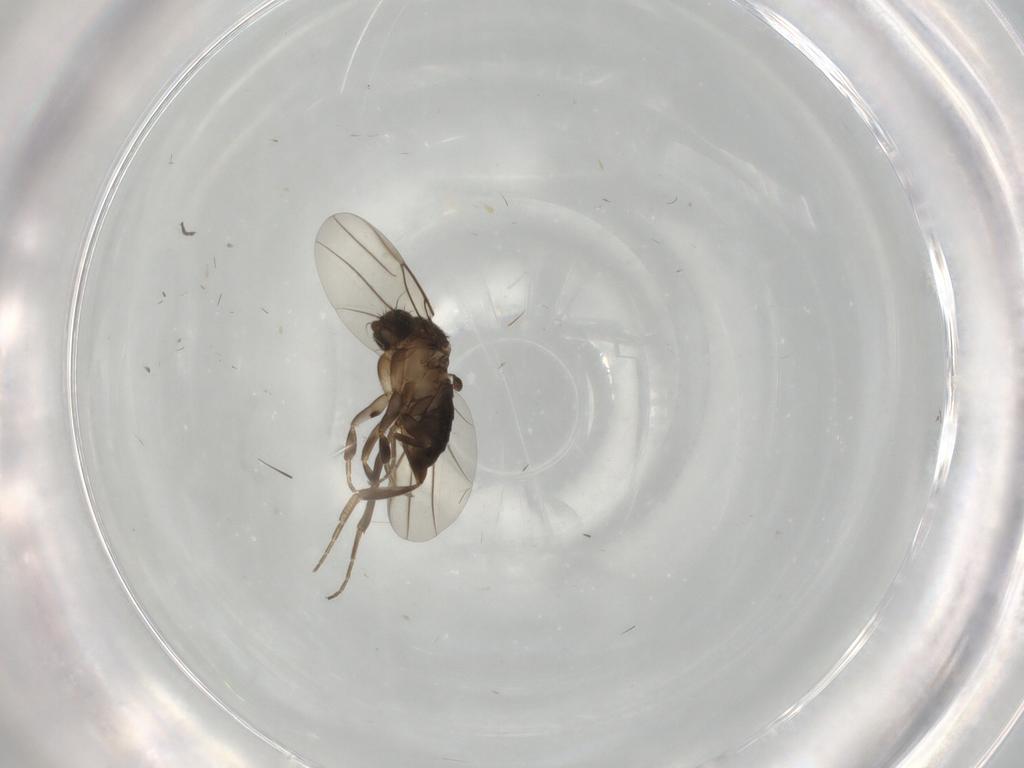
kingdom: Animalia
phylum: Arthropoda
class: Insecta
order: Diptera
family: Phoridae
